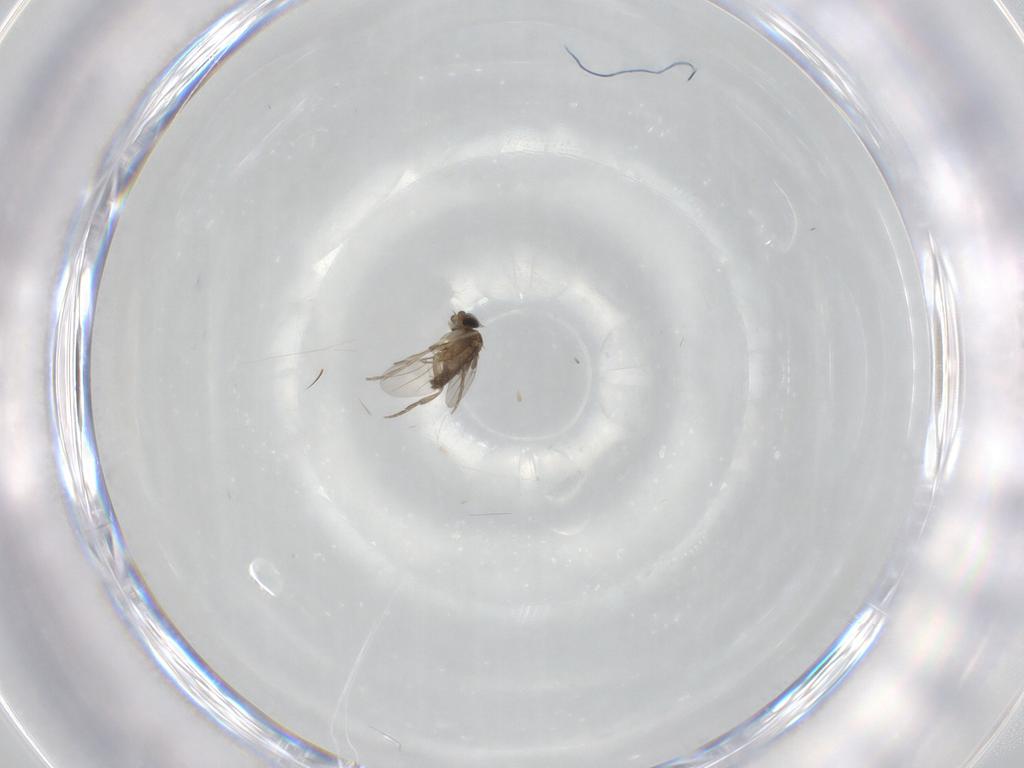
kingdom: Animalia
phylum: Arthropoda
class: Insecta
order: Diptera
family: Phoridae
